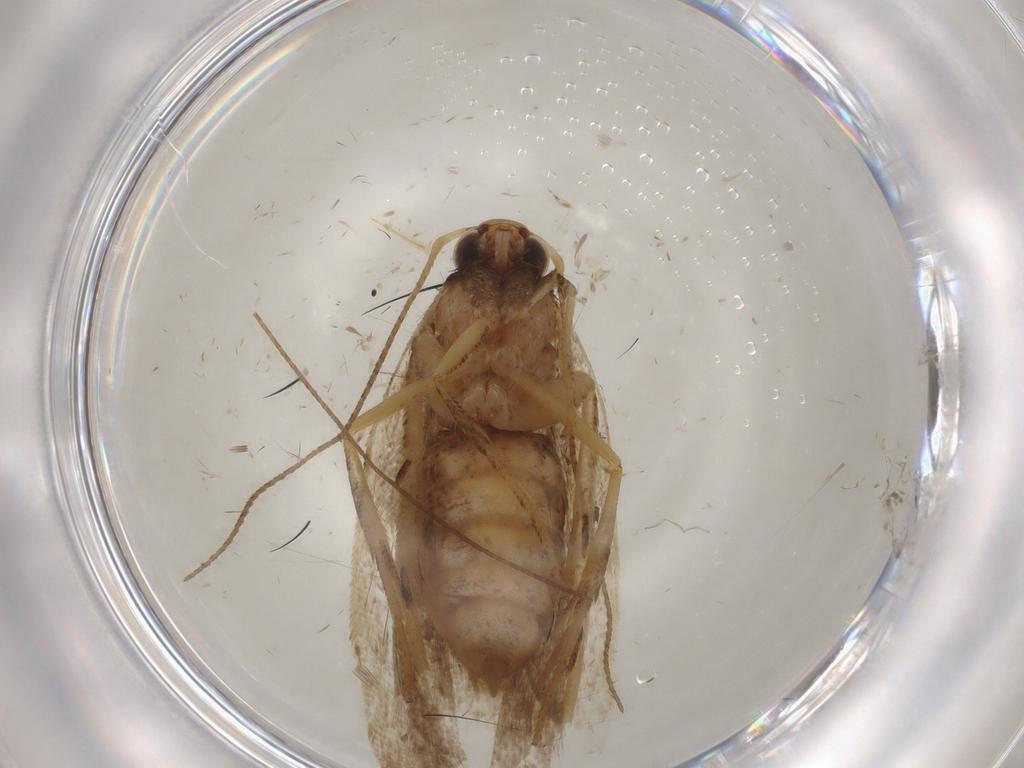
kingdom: Animalia
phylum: Arthropoda
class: Insecta
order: Lepidoptera
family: Gelechiidae
